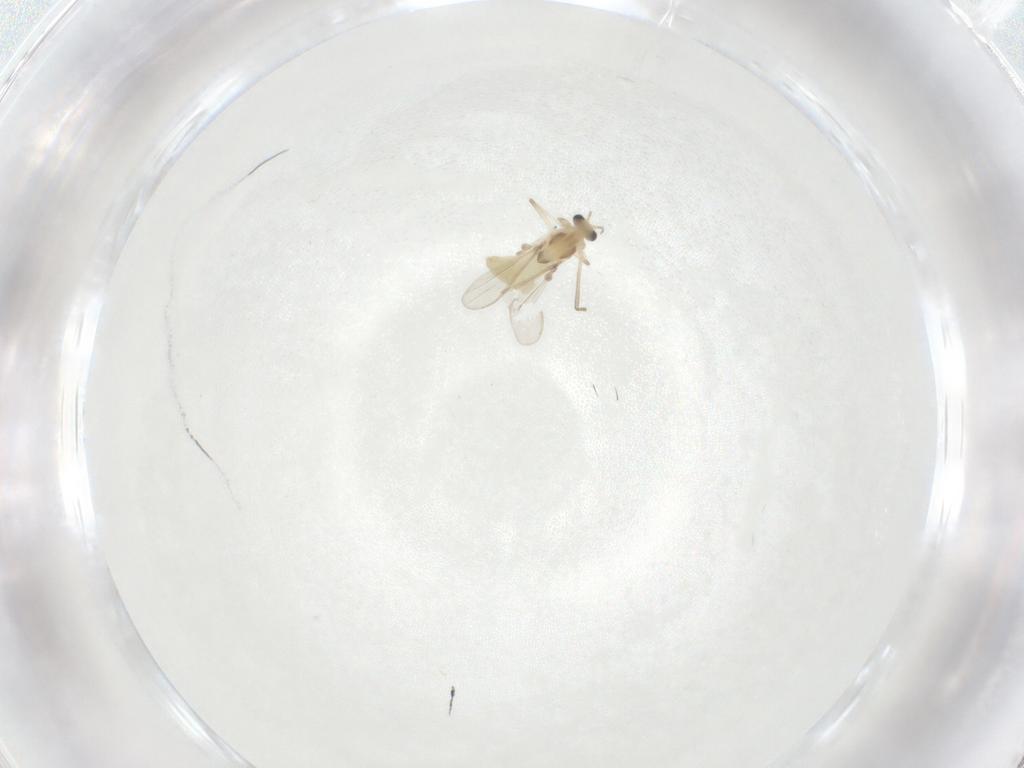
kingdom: Animalia
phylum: Arthropoda
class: Insecta
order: Diptera
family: Chironomidae
